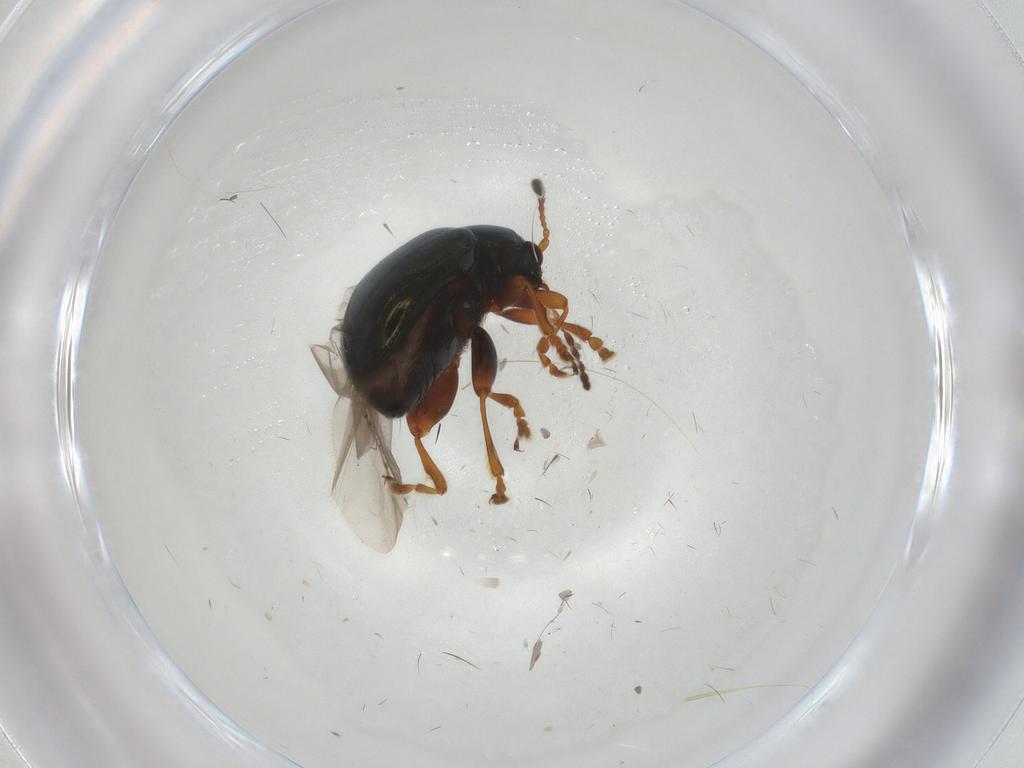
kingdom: Animalia
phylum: Arthropoda
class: Insecta
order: Coleoptera
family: Chrysomelidae
